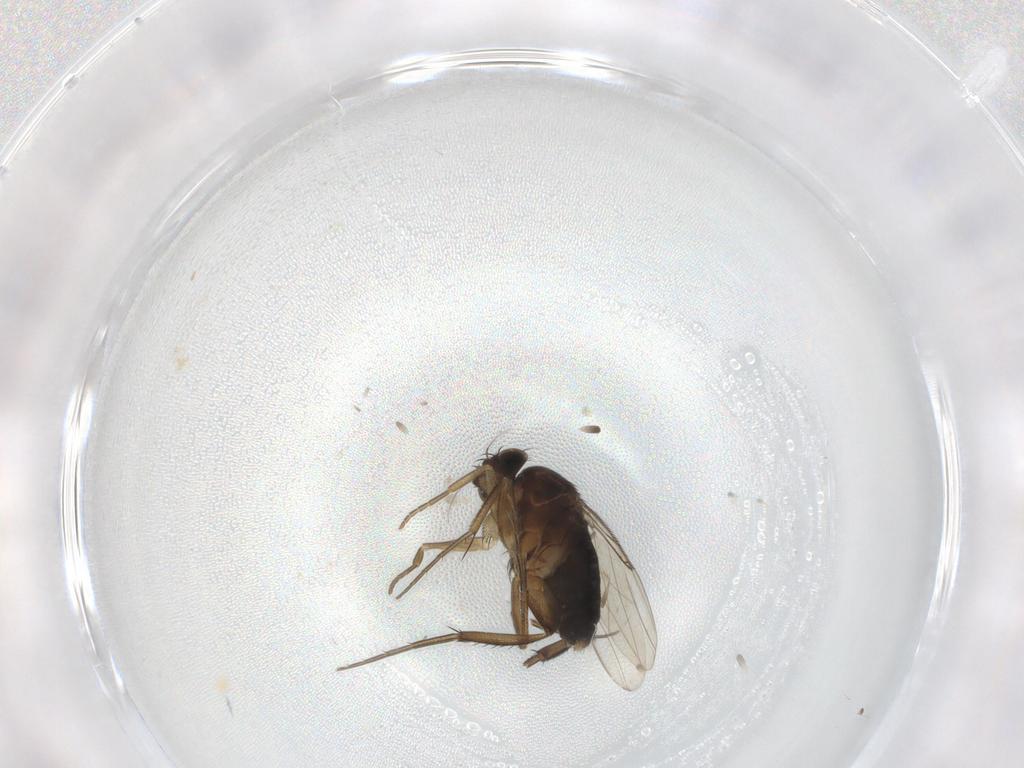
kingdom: Animalia
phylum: Arthropoda
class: Insecta
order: Diptera
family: Phoridae
